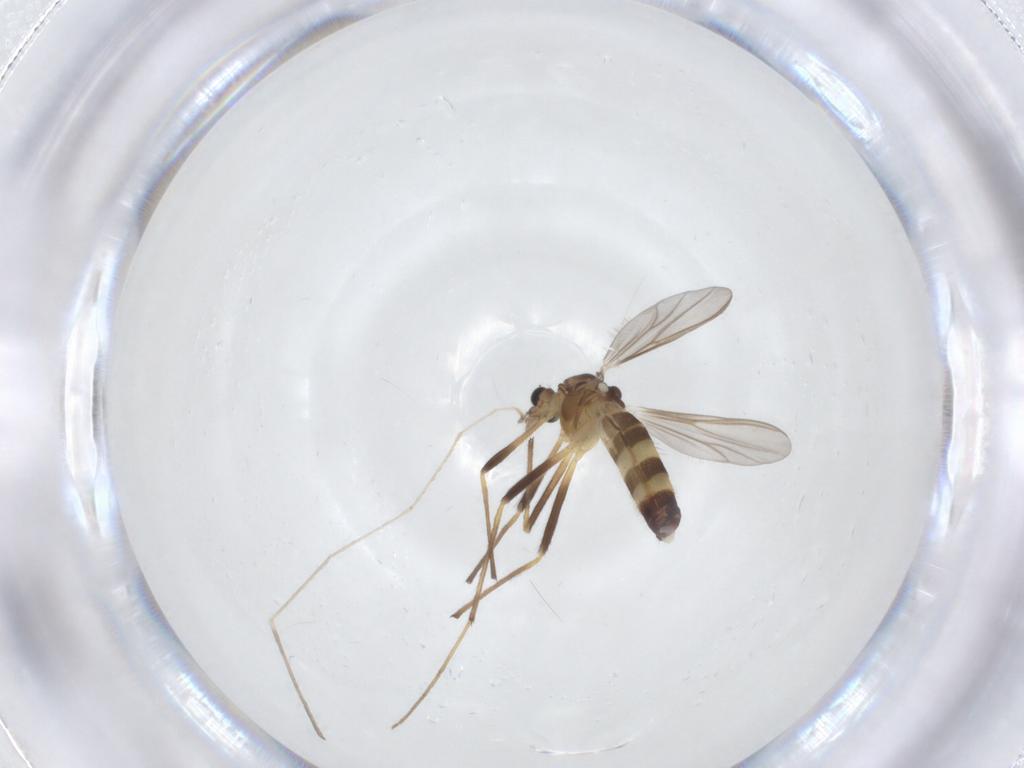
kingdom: Animalia
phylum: Arthropoda
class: Insecta
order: Diptera
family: Chironomidae
